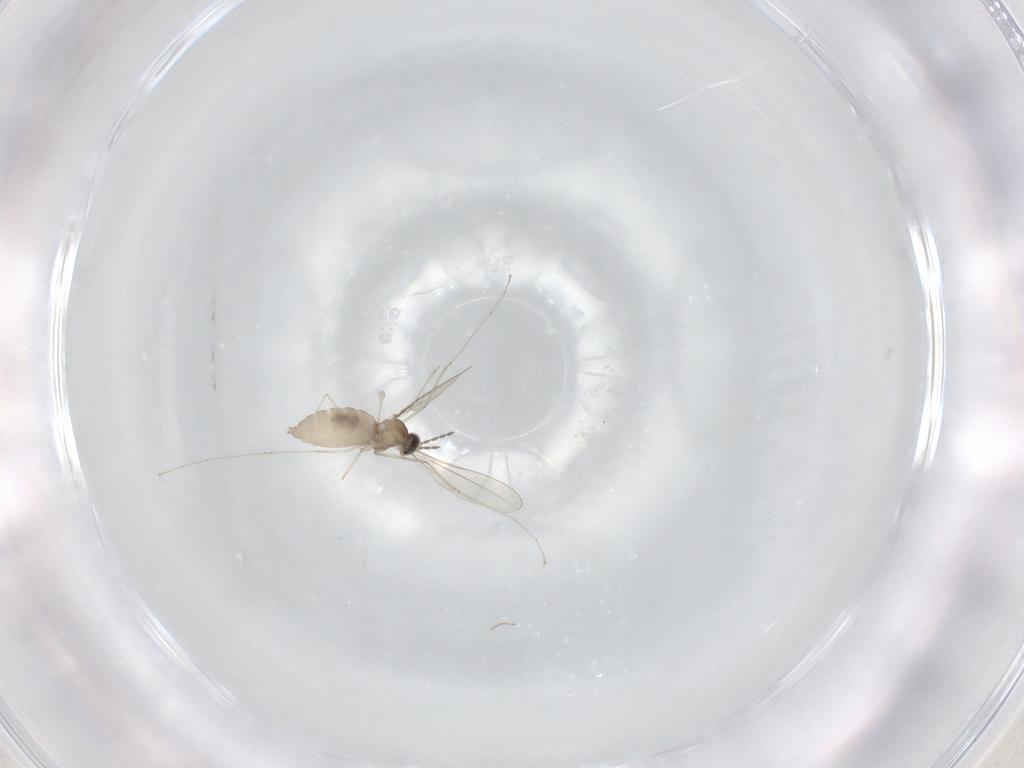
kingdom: Animalia
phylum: Arthropoda
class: Insecta
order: Diptera
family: Cecidomyiidae
